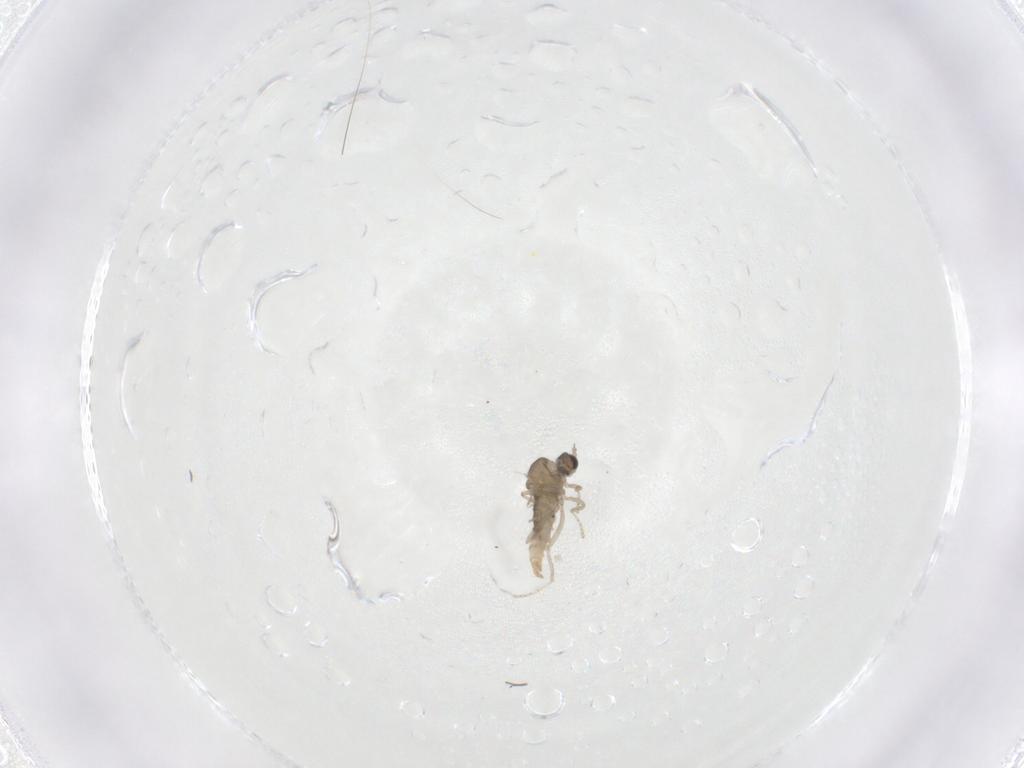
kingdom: Animalia
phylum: Arthropoda
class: Insecta
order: Diptera
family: Cecidomyiidae
